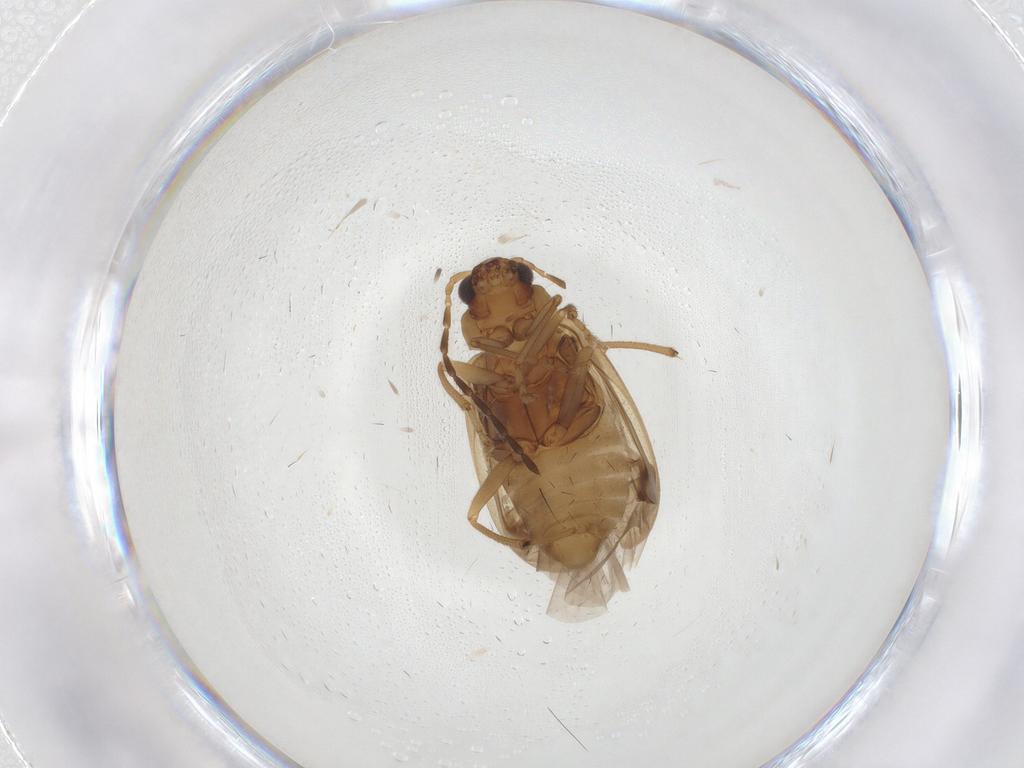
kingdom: Animalia
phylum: Arthropoda
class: Insecta
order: Coleoptera
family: Chrysomelidae
